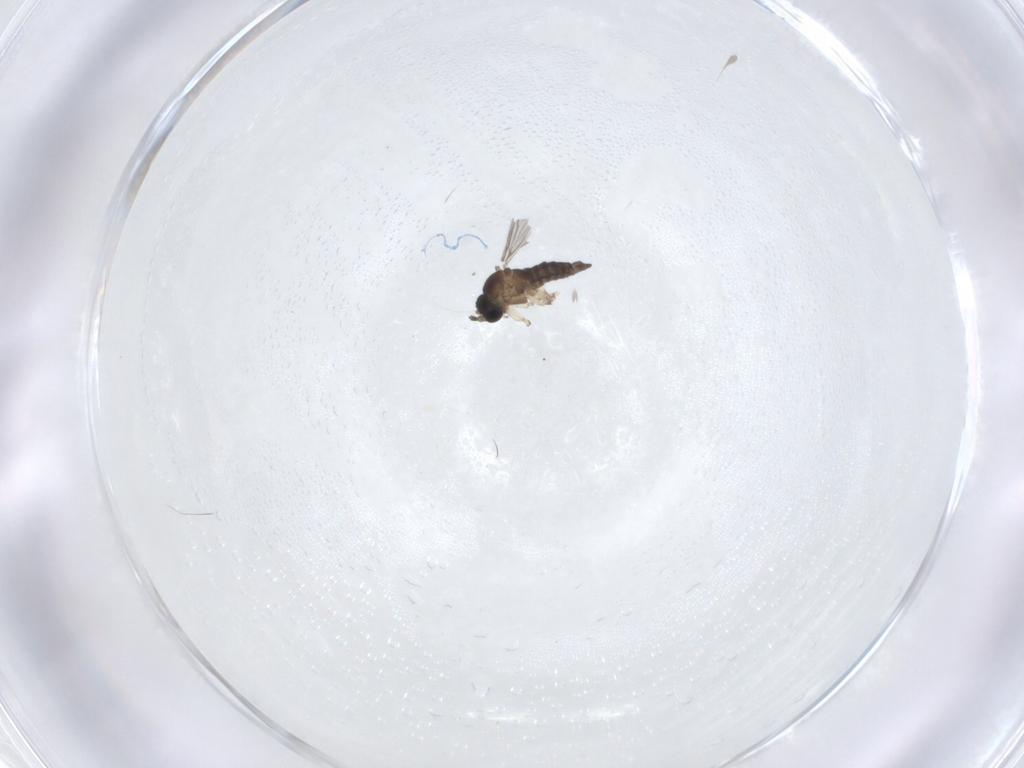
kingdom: Animalia
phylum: Arthropoda
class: Insecta
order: Diptera
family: Sciaridae
